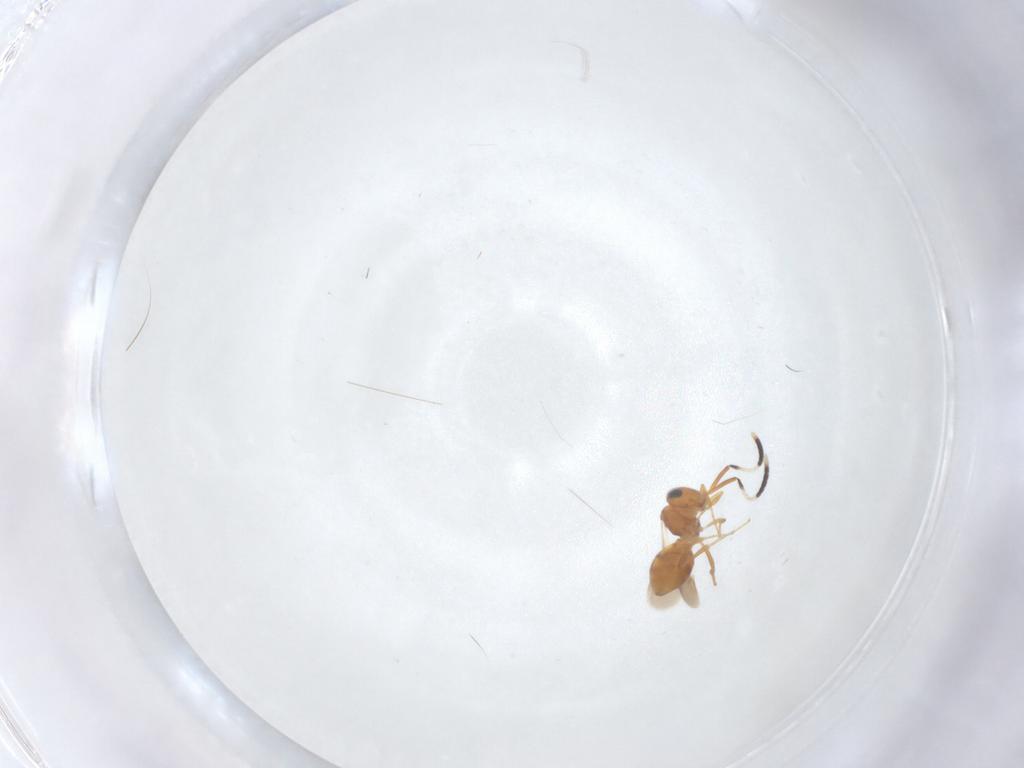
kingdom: Animalia
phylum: Arthropoda
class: Insecta
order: Hymenoptera
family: Scelionidae
